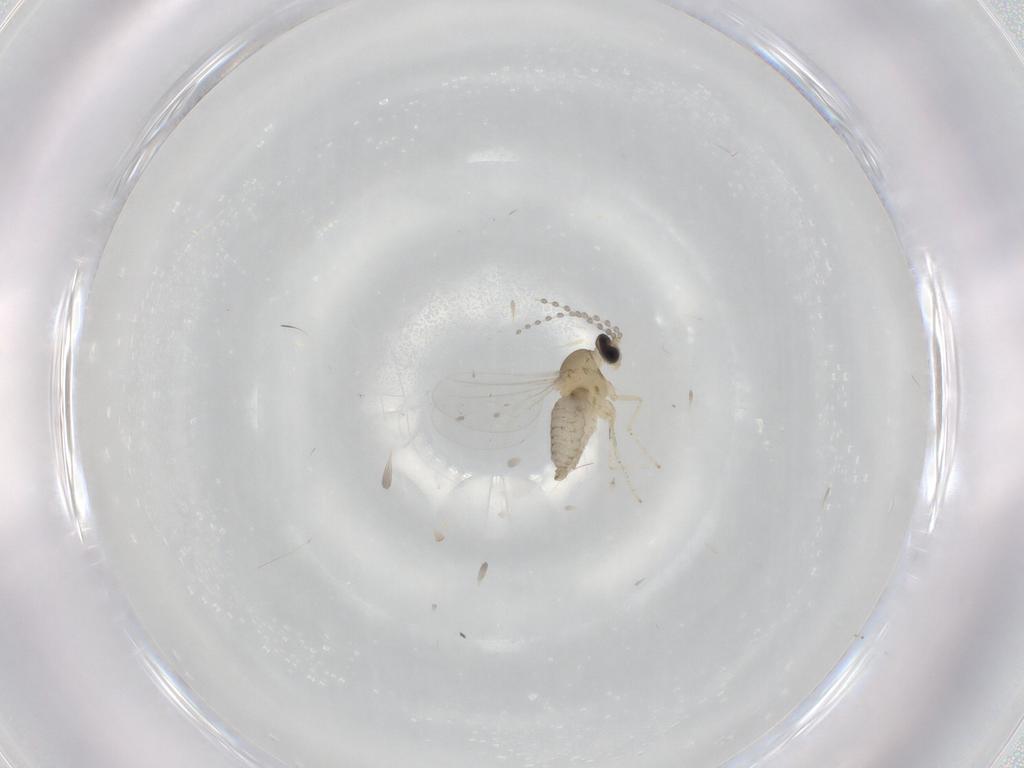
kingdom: Animalia
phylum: Arthropoda
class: Insecta
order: Diptera
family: Cecidomyiidae
